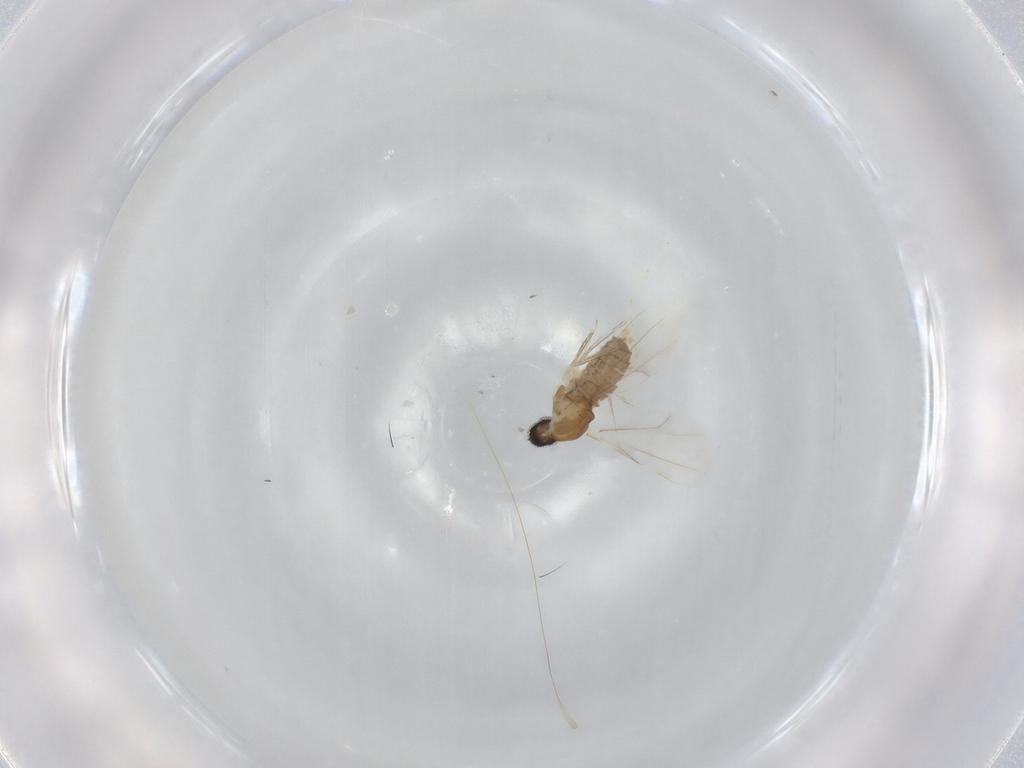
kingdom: Animalia
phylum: Arthropoda
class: Insecta
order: Diptera
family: Cecidomyiidae
